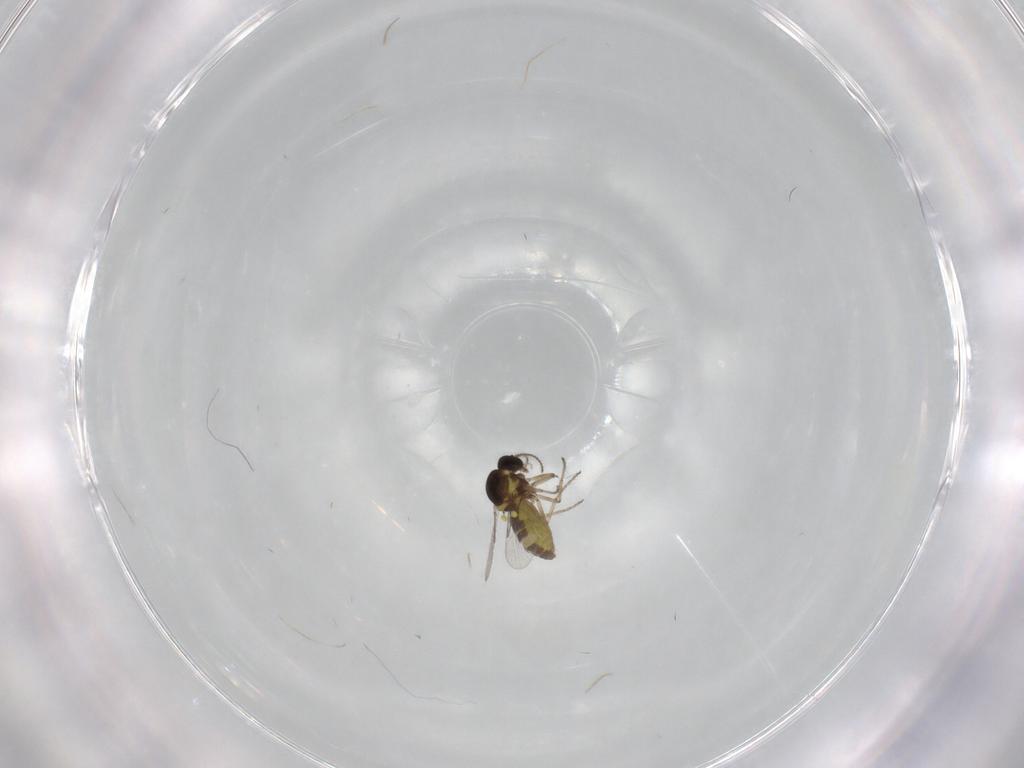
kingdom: Animalia
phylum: Arthropoda
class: Insecta
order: Diptera
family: Ceratopogonidae
